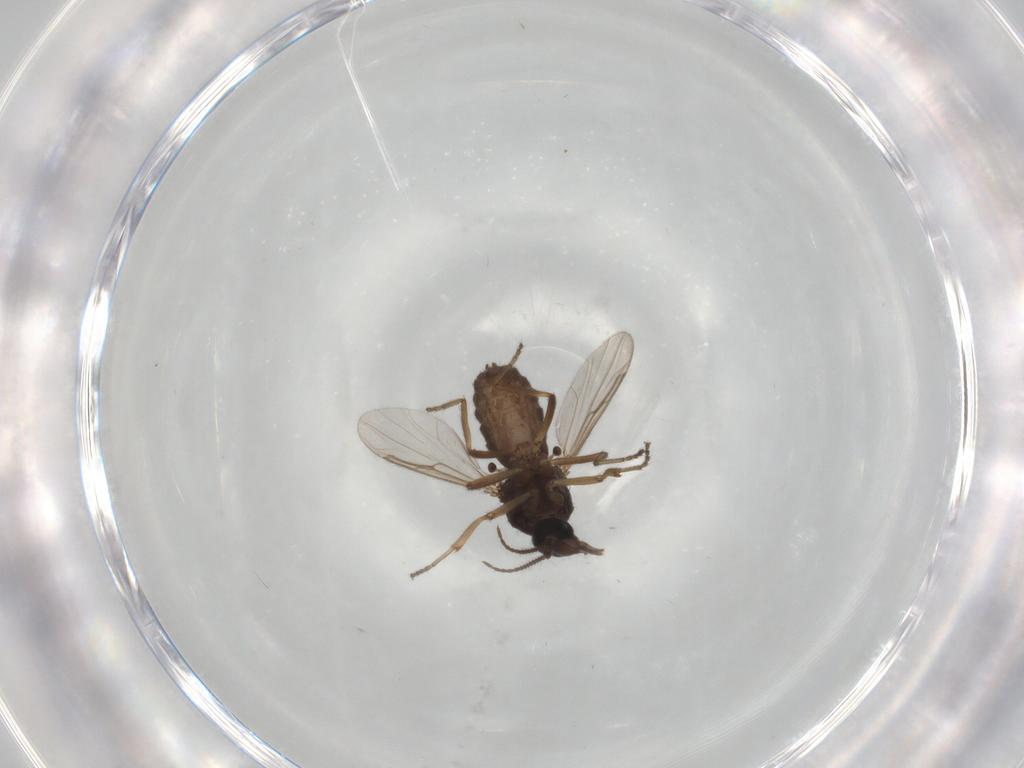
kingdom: Animalia
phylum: Arthropoda
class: Insecta
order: Diptera
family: Ceratopogonidae
